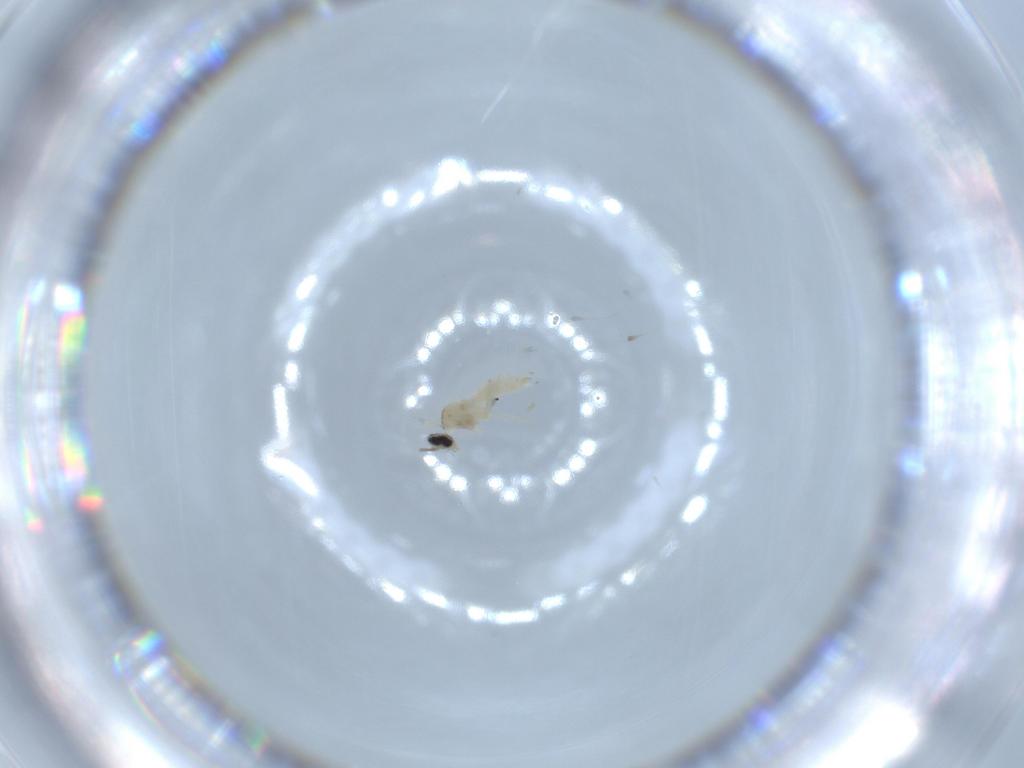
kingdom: Animalia
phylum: Arthropoda
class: Insecta
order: Diptera
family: Cecidomyiidae
